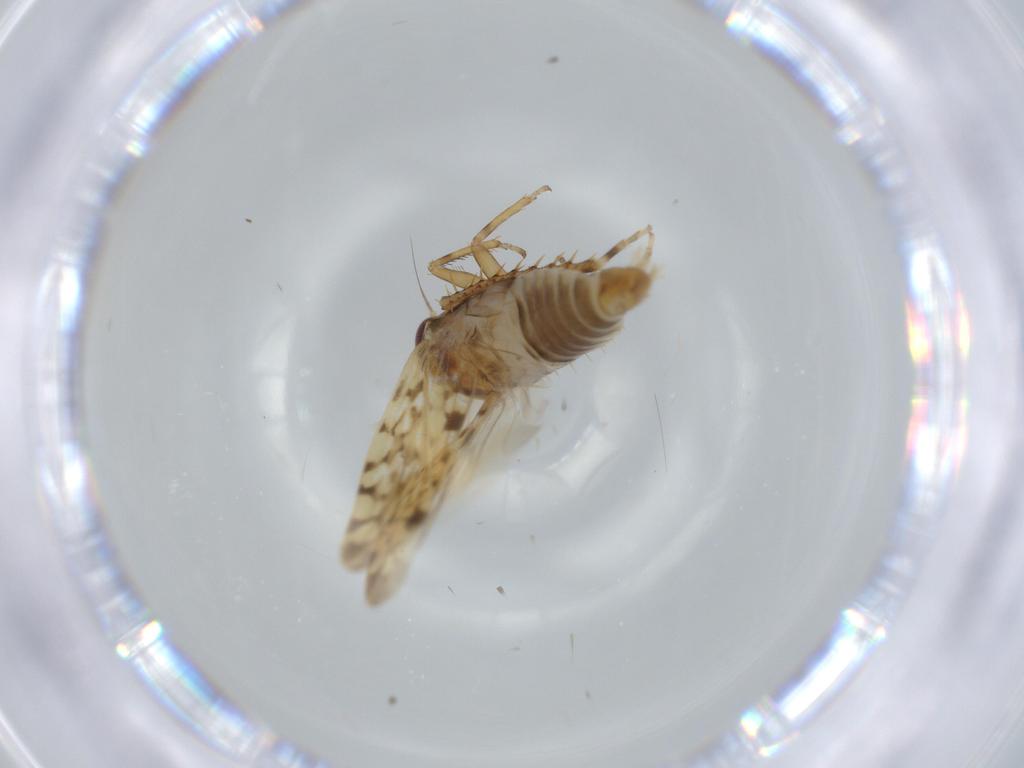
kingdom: Animalia
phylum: Arthropoda
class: Insecta
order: Hemiptera
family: Cicadellidae
